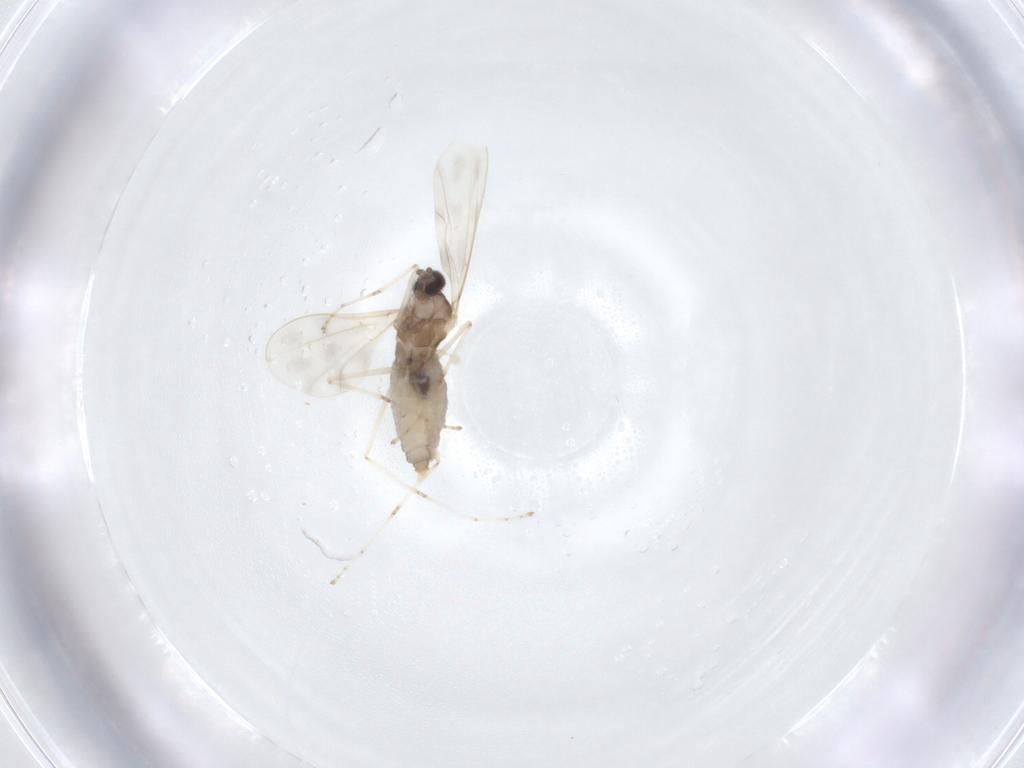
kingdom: Animalia
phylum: Arthropoda
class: Insecta
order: Diptera
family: Cecidomyiidae
